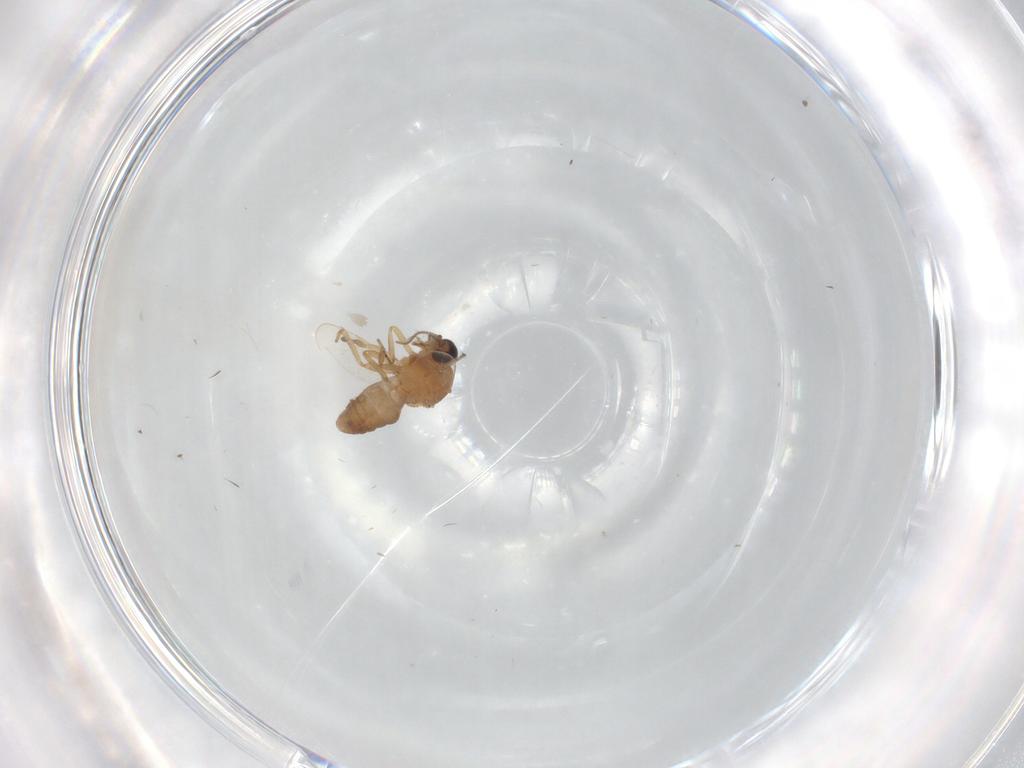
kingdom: Animalia
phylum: Arthropoda
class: Insecta
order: Diptera
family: Ceratopogonidae
